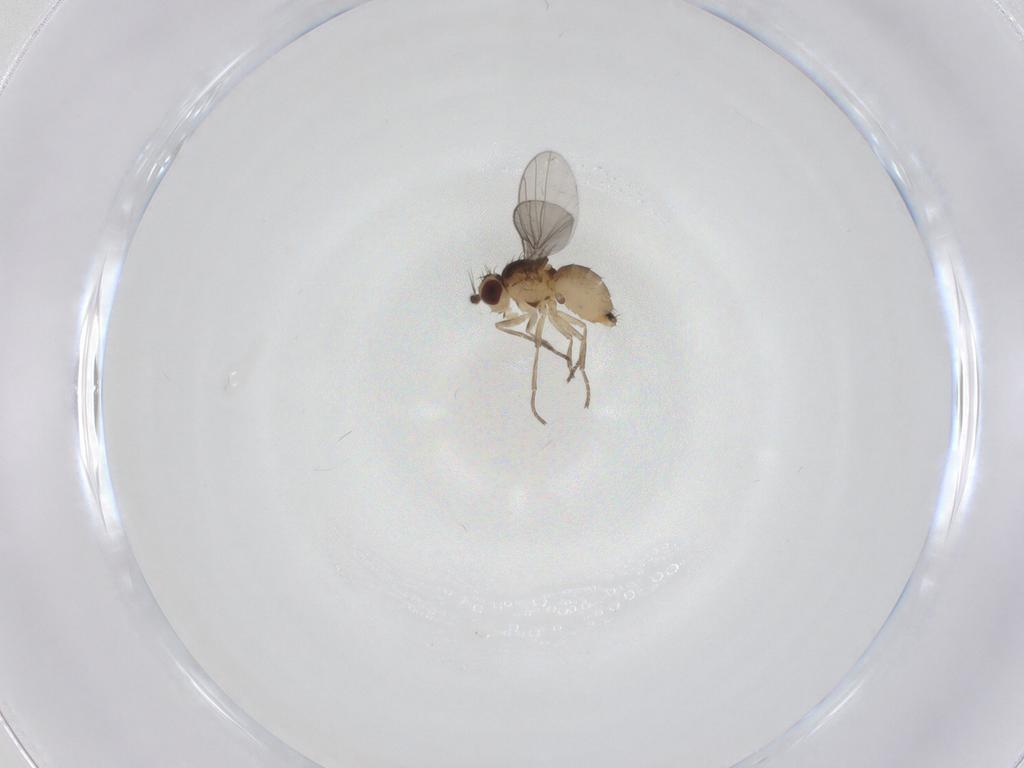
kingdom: Animalia
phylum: Arthropoda
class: Insecta
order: Diptera
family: Agromyzidae
